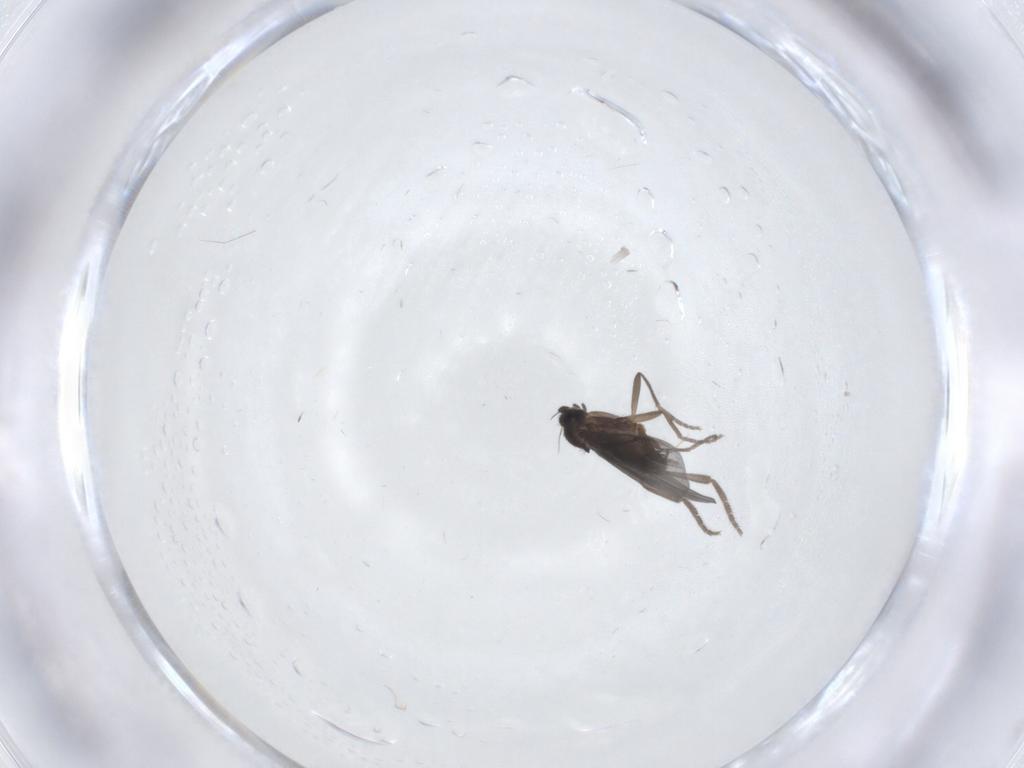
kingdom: Animalia
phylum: Arthropoda
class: Insecta
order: Diptera
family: Phoridae
